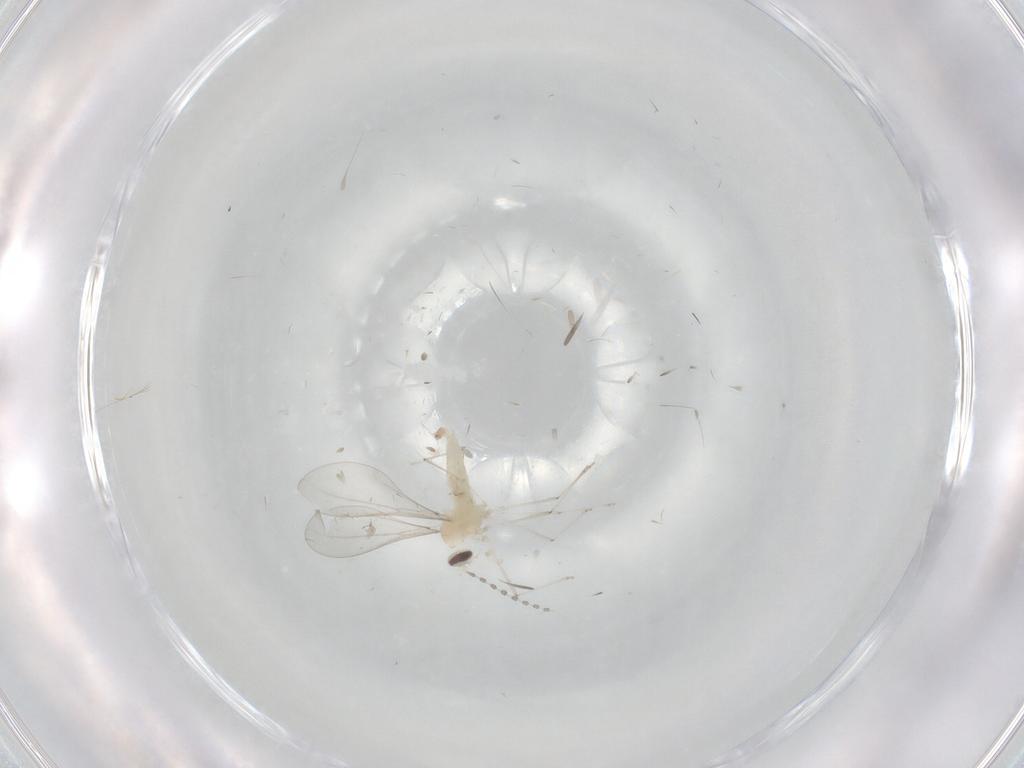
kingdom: Animalia
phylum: Arthropoda
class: Insecta
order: Diptera
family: Cecidomyiidae
